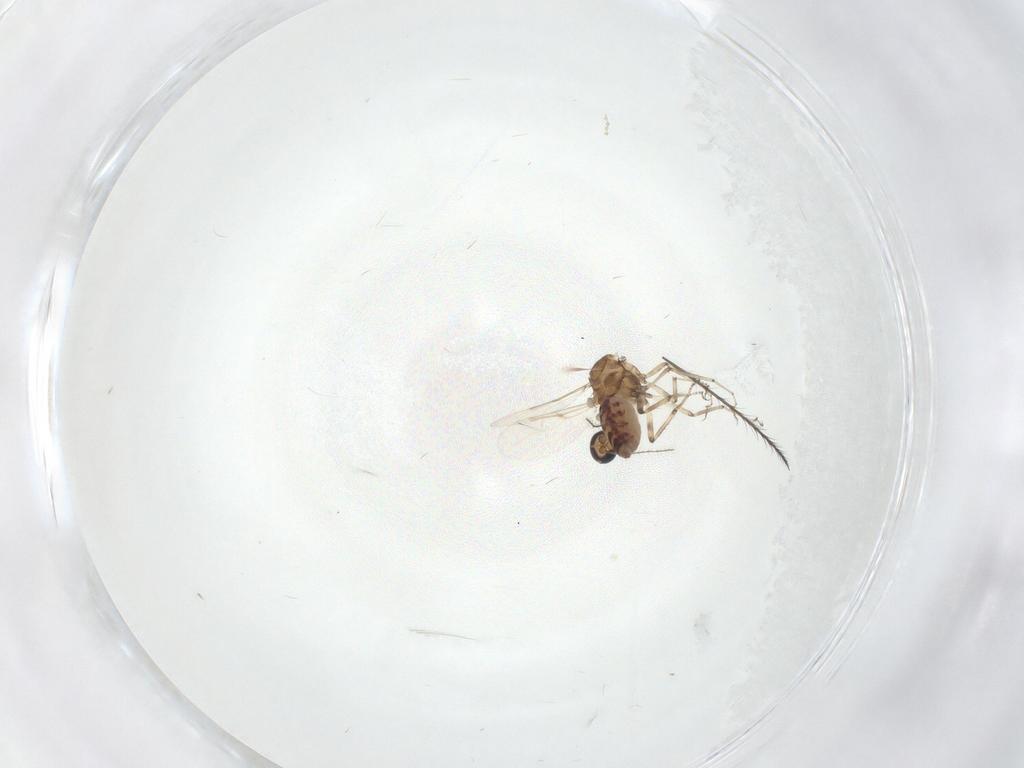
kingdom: Animalia
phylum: Arthropoda
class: Insecta
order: Diptera
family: Ceratopogonidae
